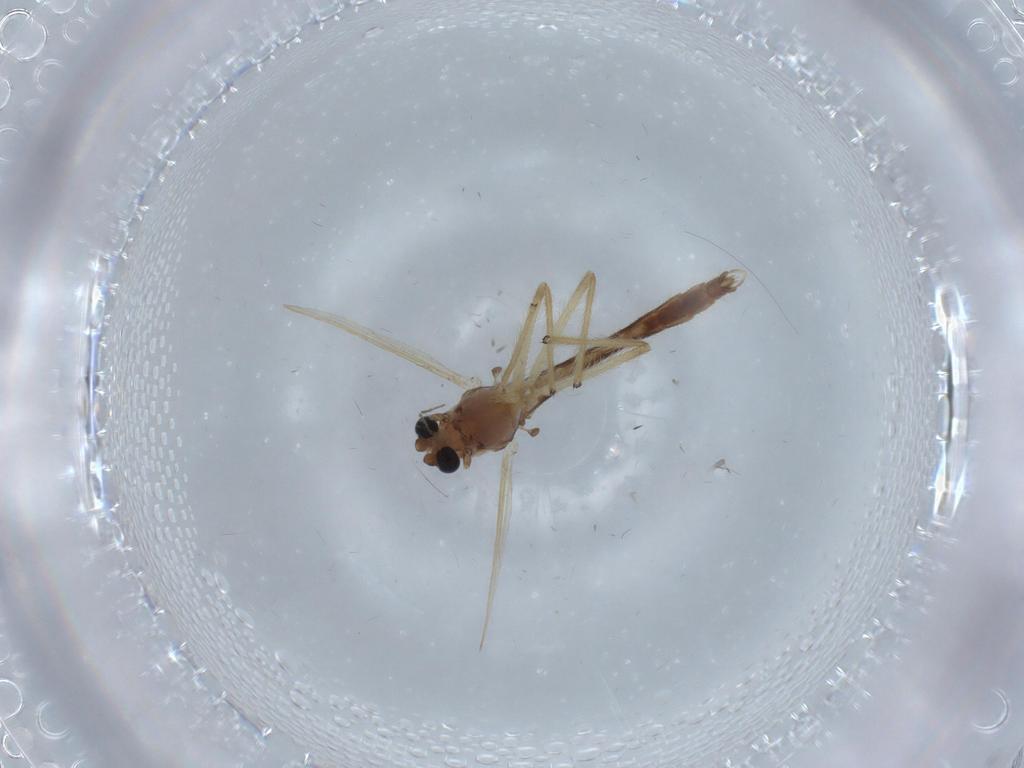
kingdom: Animalia
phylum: Arthropoda
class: Insecta
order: Diptera
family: Chironomidae
